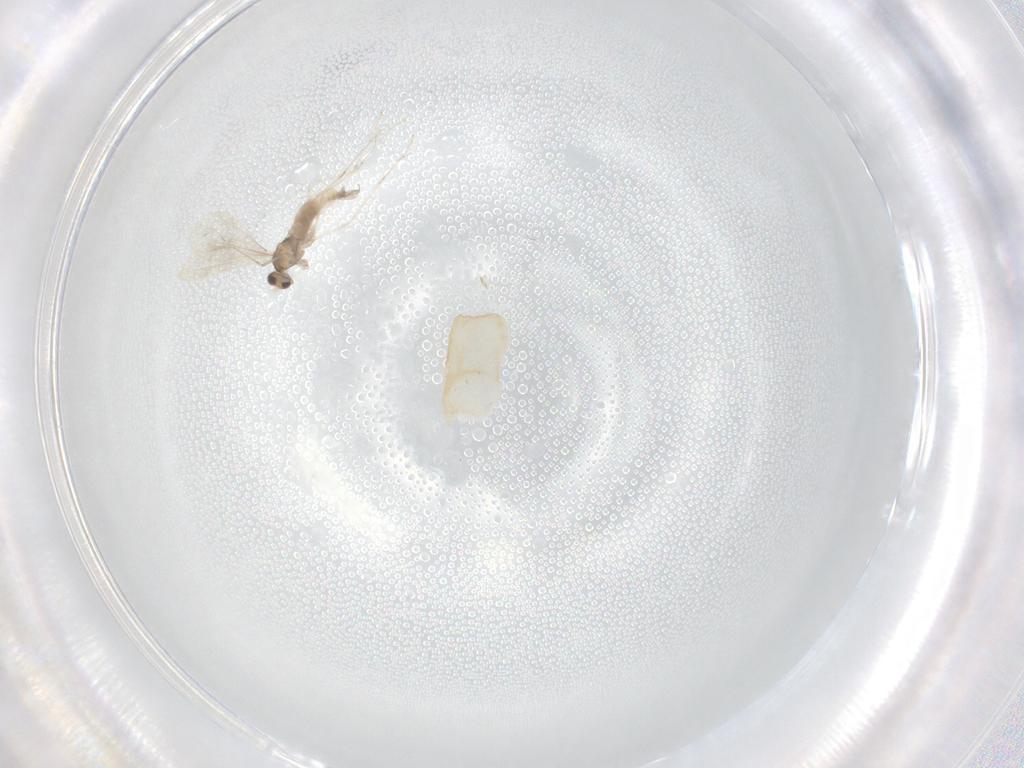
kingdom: Animalia
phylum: Arthropoda
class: Insecta
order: Diptera
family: Cecidomyiidae
